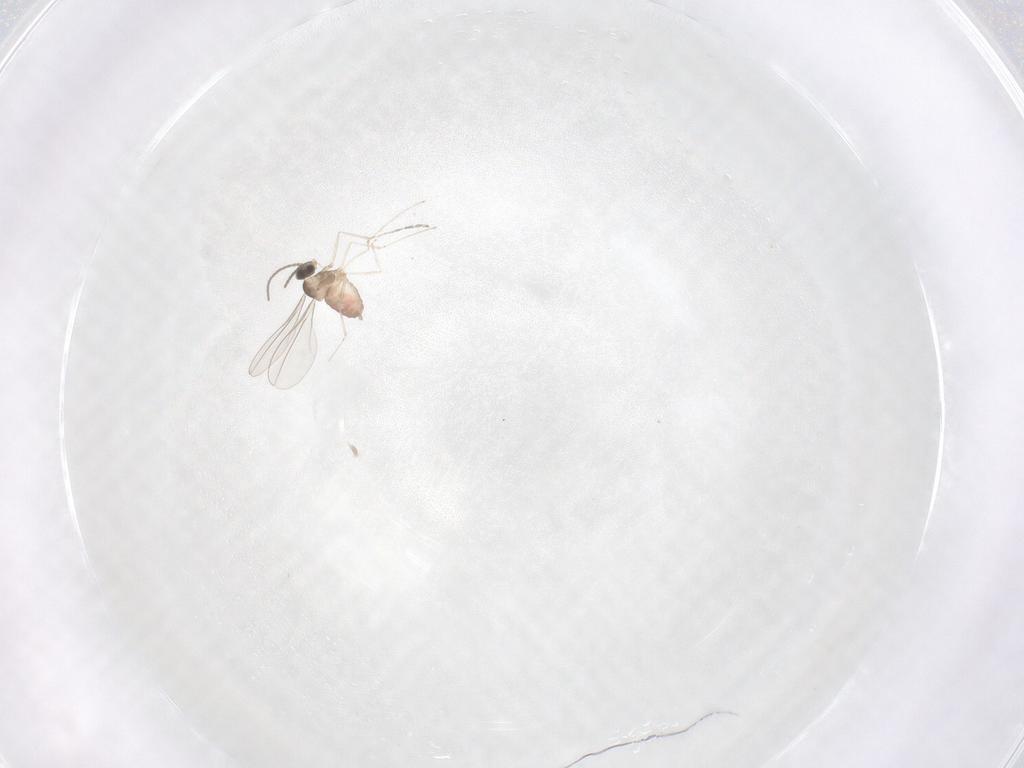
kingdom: Animalia
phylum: Arthropoda
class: Insecta
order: Diptera
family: Cecidomyiidae
